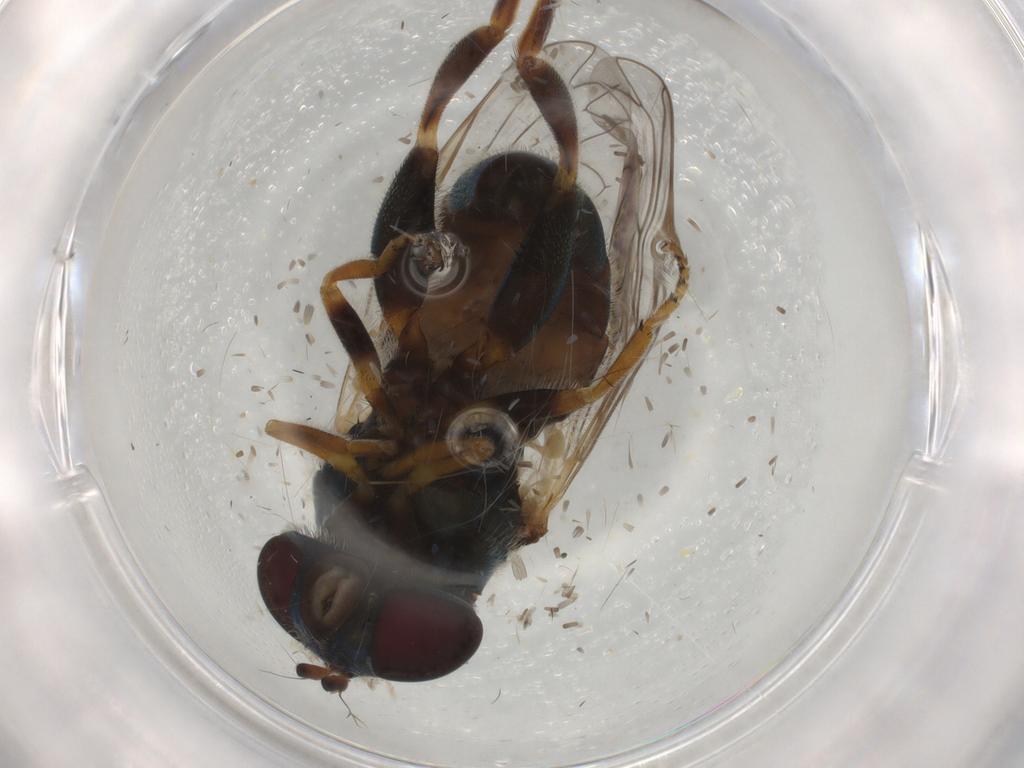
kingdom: Animalia
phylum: Arthropoda
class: Insecta
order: Diptera
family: Syrphidae
